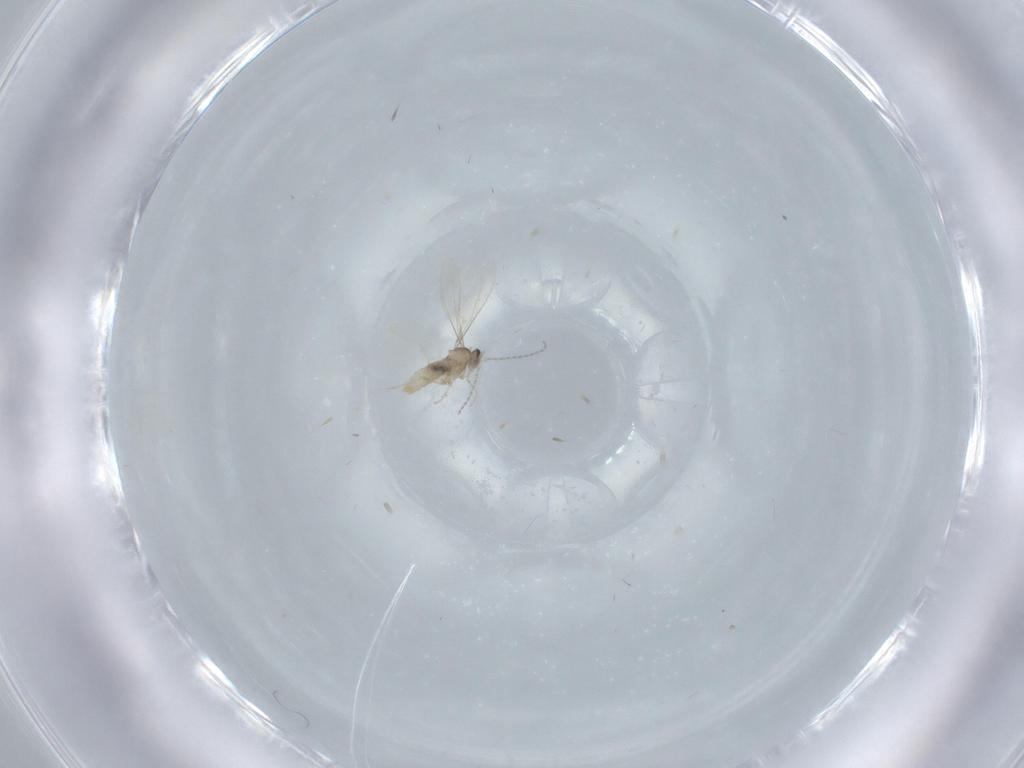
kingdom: Animalia
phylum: Arthropoda
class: Insecta
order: Diptera
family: Cecidomyiidae
